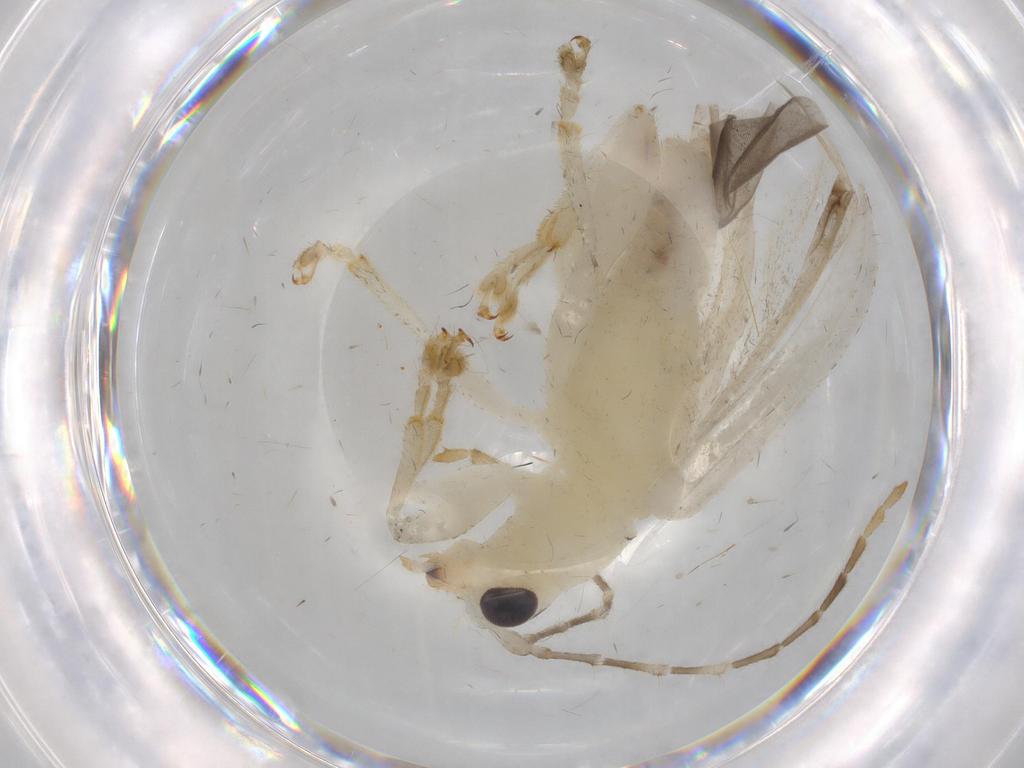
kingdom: Animalia
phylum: Arthropoda
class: Insecta
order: Coleoptera
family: Chrysomelidae
